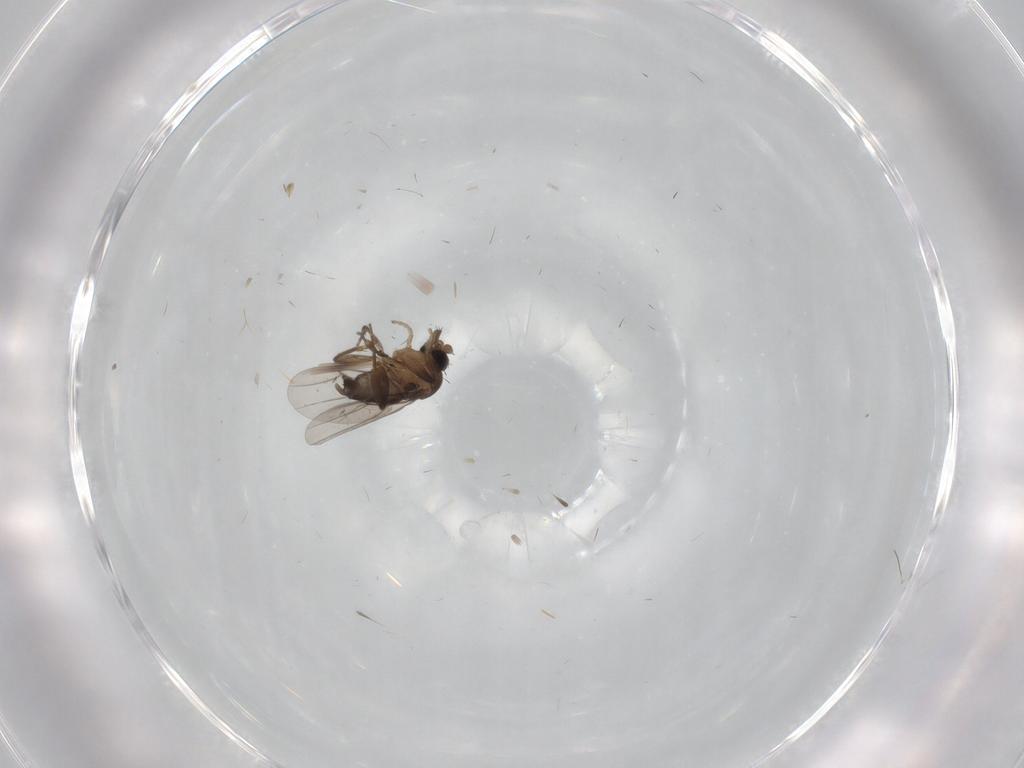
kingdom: Animalia
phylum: Arthropoda
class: Insecta
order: Diptera
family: Phoridae
